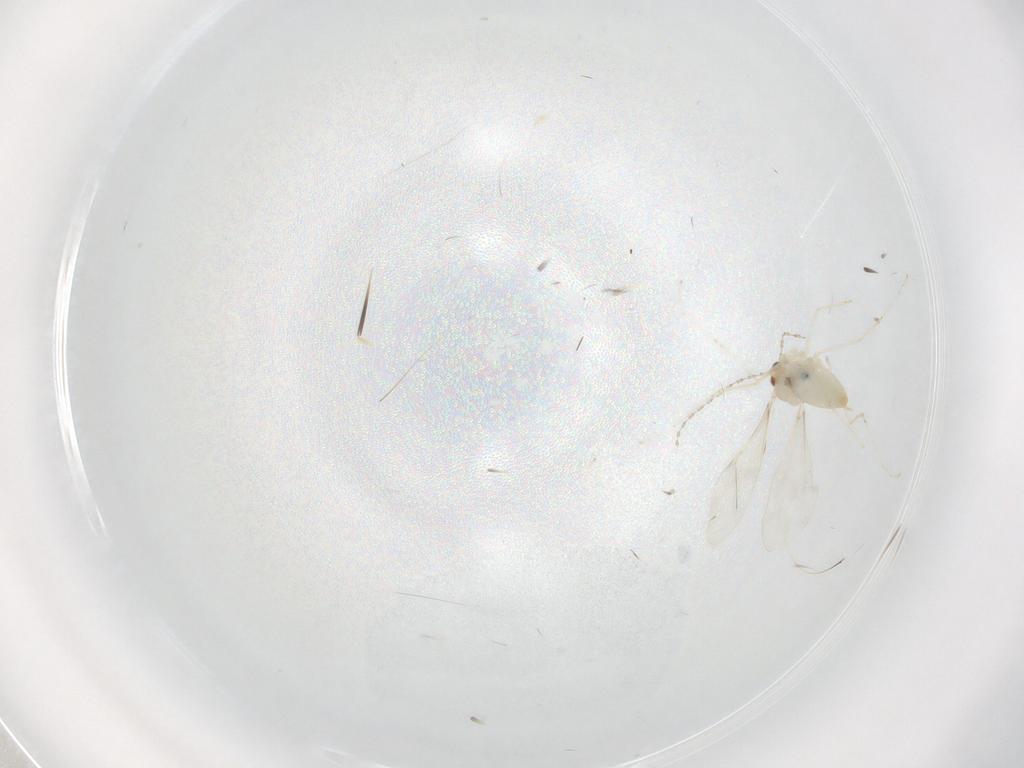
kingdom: Animalia
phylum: Arthropoda
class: Insecta
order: Diptera
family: Cecidomyiidae
